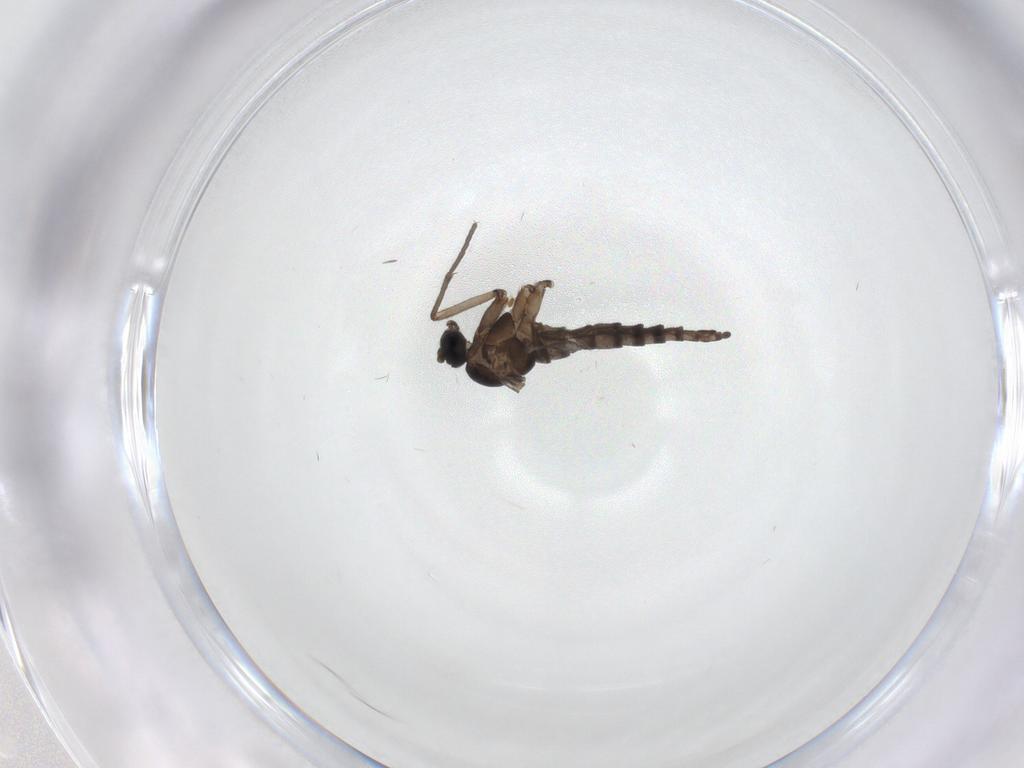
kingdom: Animalia
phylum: Arthropoda
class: Insecta
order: Diptera
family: Sciaridae
